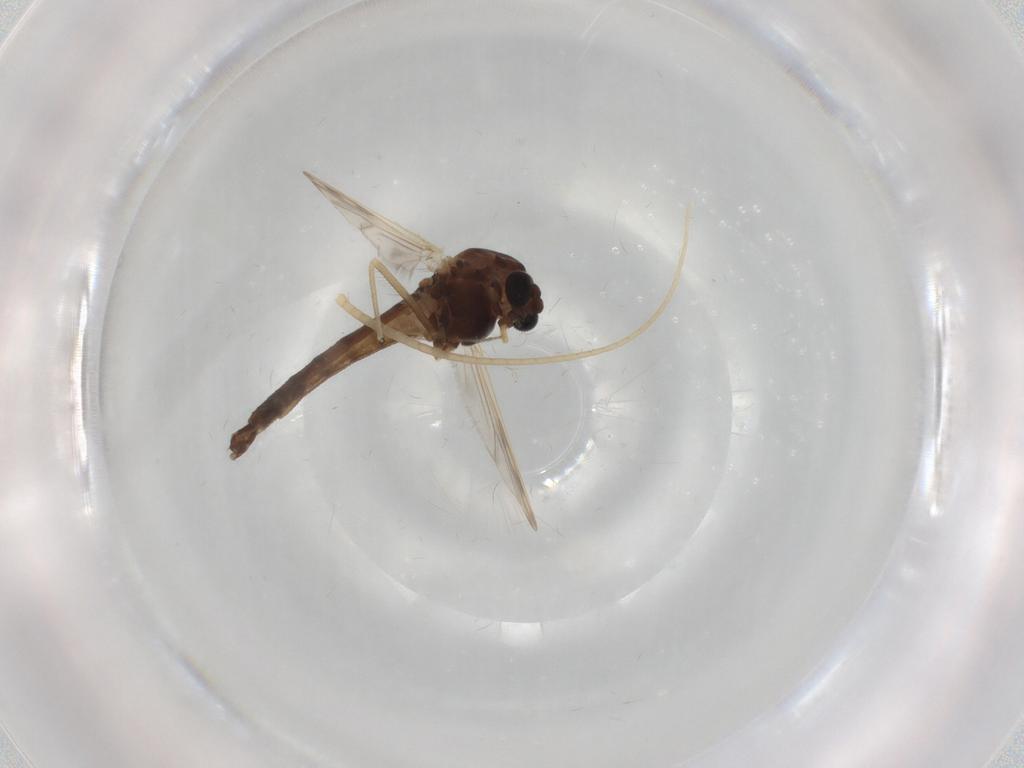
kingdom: Animalia
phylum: Arthropoda
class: Insecta
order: Diptera
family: Chironomidae
